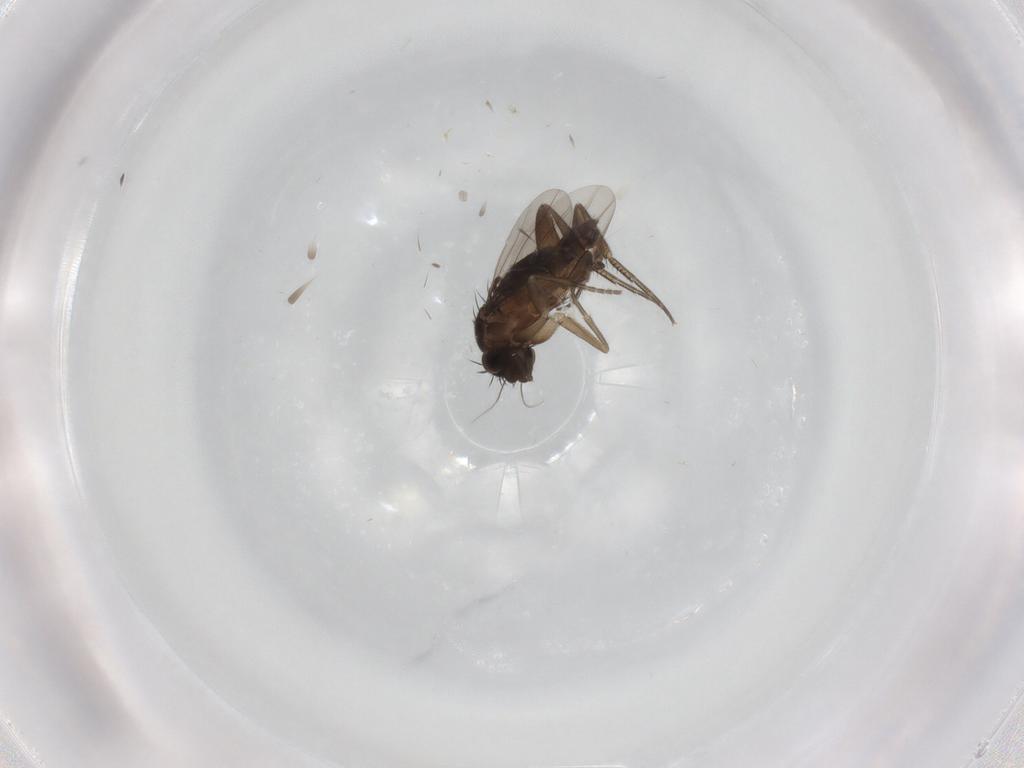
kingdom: Animalia
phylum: Arthropoda
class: Insecta
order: Diptera
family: Phoridae
